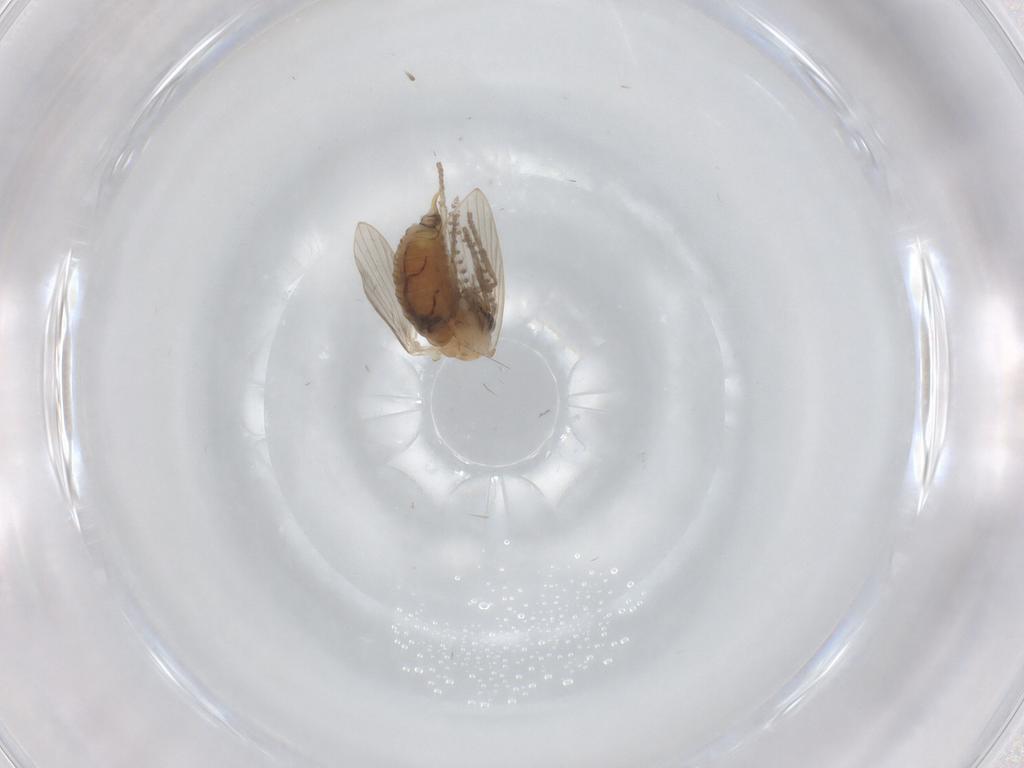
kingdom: Animalia
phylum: Arthropoda
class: Insecta
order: Diptera
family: Psychodidae
